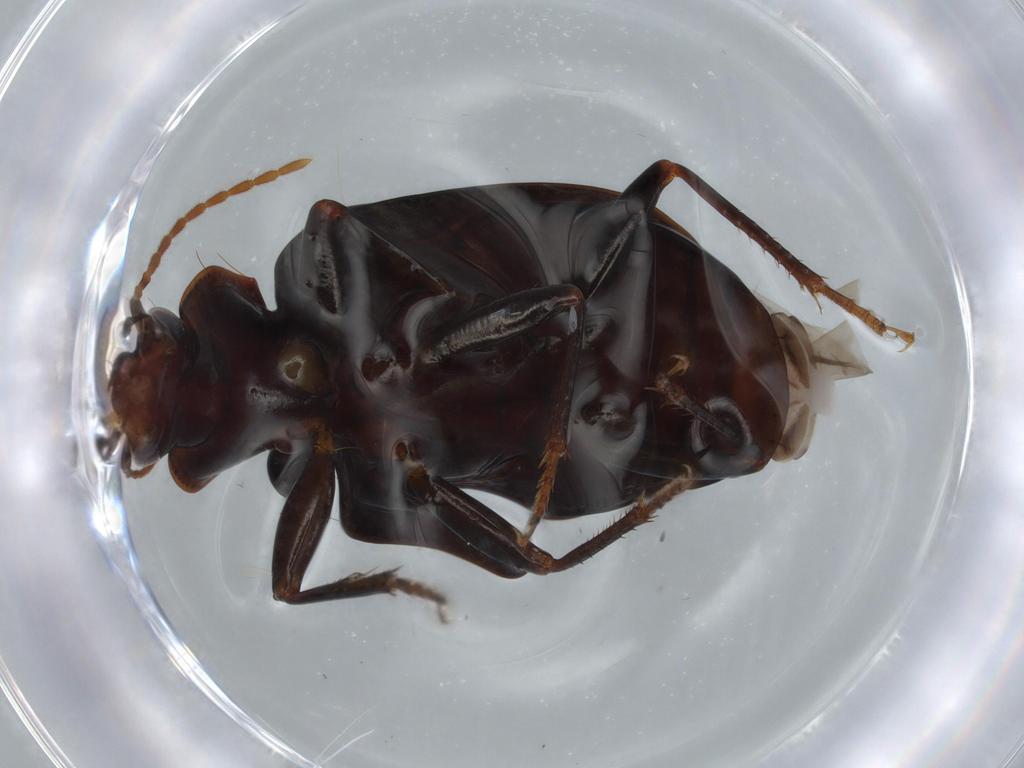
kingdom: Animalia
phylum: Arthropoda
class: Insecta
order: Coleoptera
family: Carabidae
